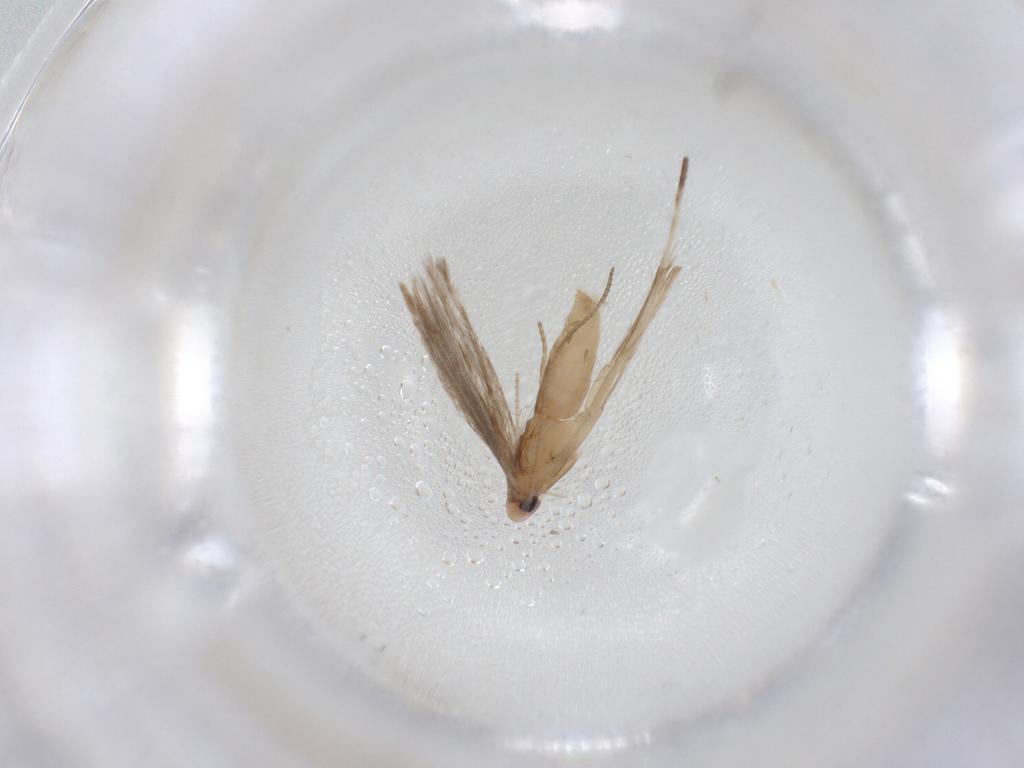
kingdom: Animalia
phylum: Arthropoda
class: Insecta
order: Lepidoptera
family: Gracillariidae
